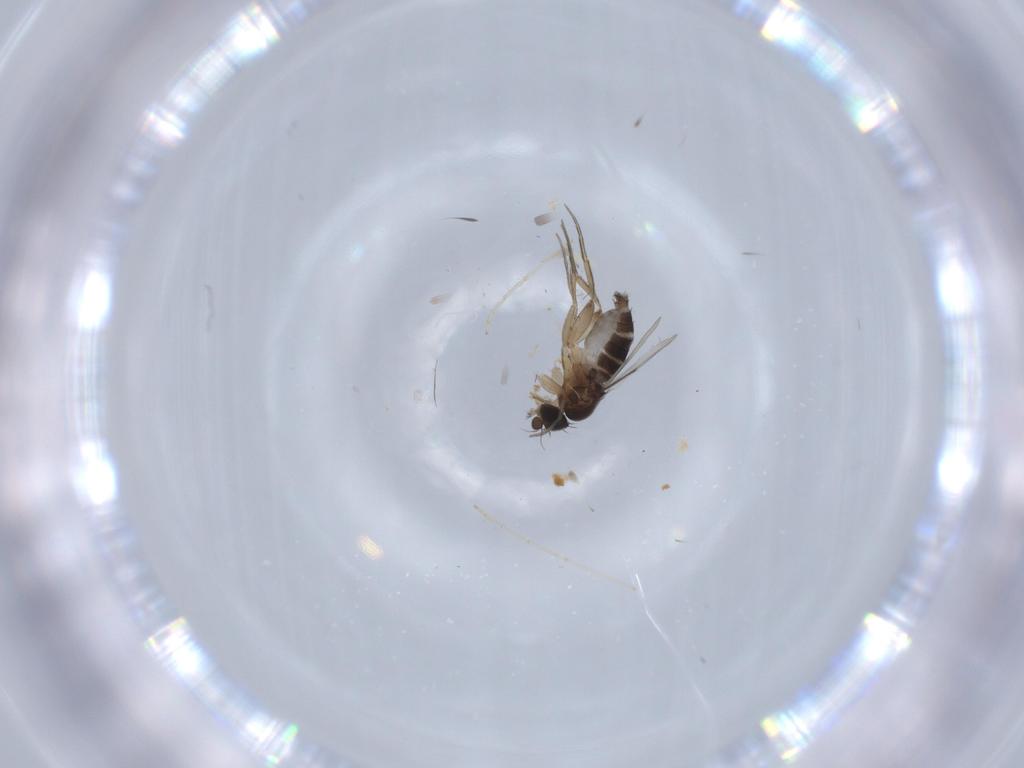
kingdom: Animalia
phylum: Arthropoda
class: Insecta
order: Diptera
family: Chironomidae
